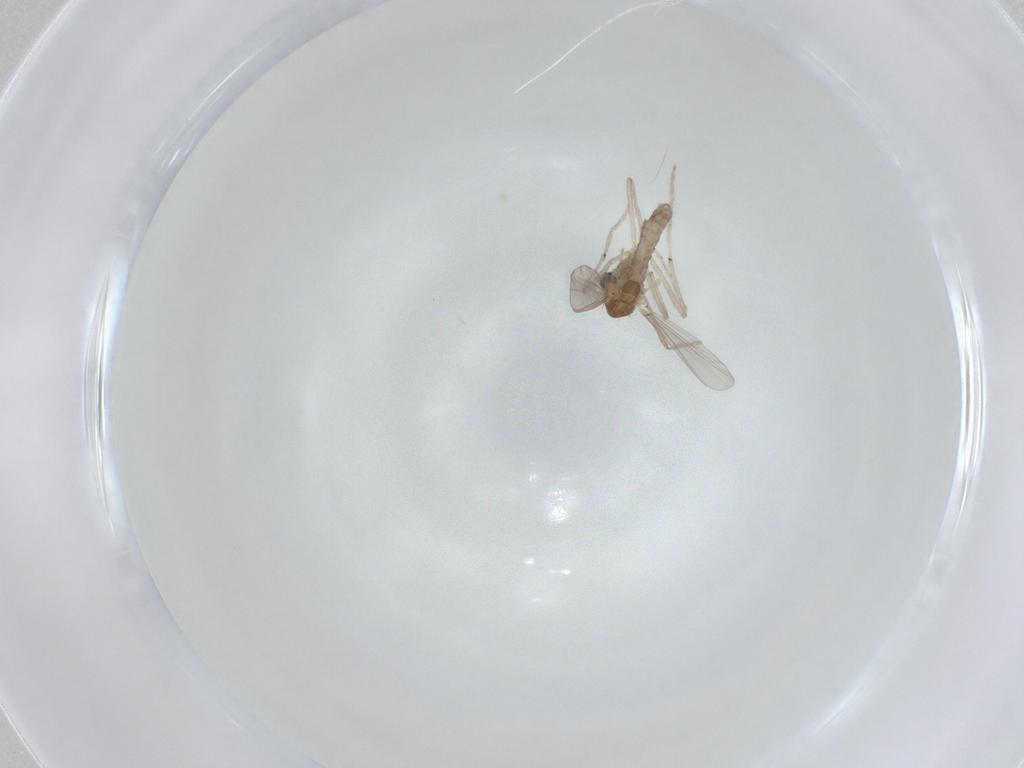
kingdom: Animalia
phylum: Arthropoda
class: Insecta
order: Diptera
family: Chironomidae
